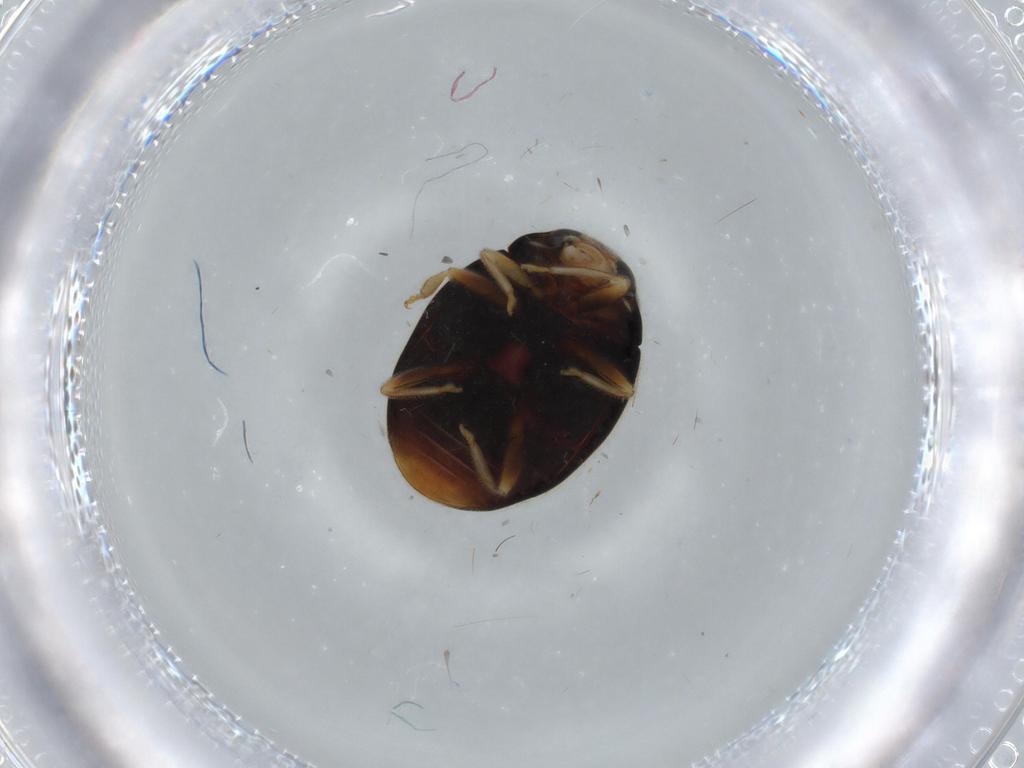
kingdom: Animalia
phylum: Arthropoda
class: Insecta
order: Coleoptera
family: Coccinellidae
